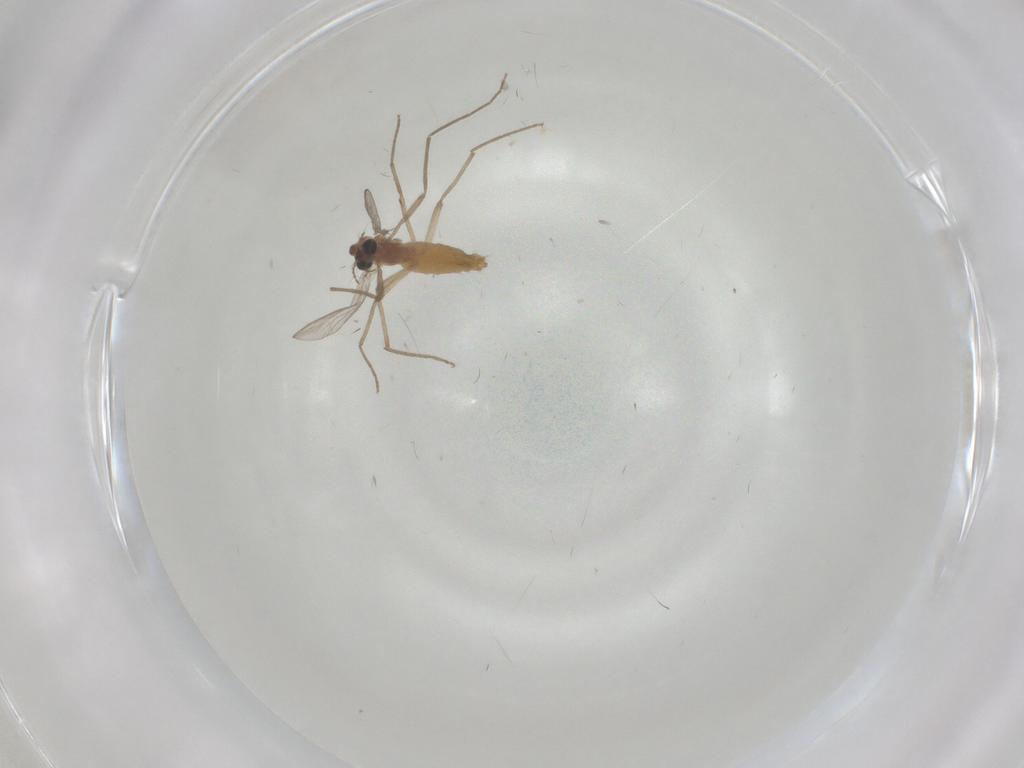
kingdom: Animalia
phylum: Arthropoda
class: Insecta
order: Diptera
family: Chironomidae
